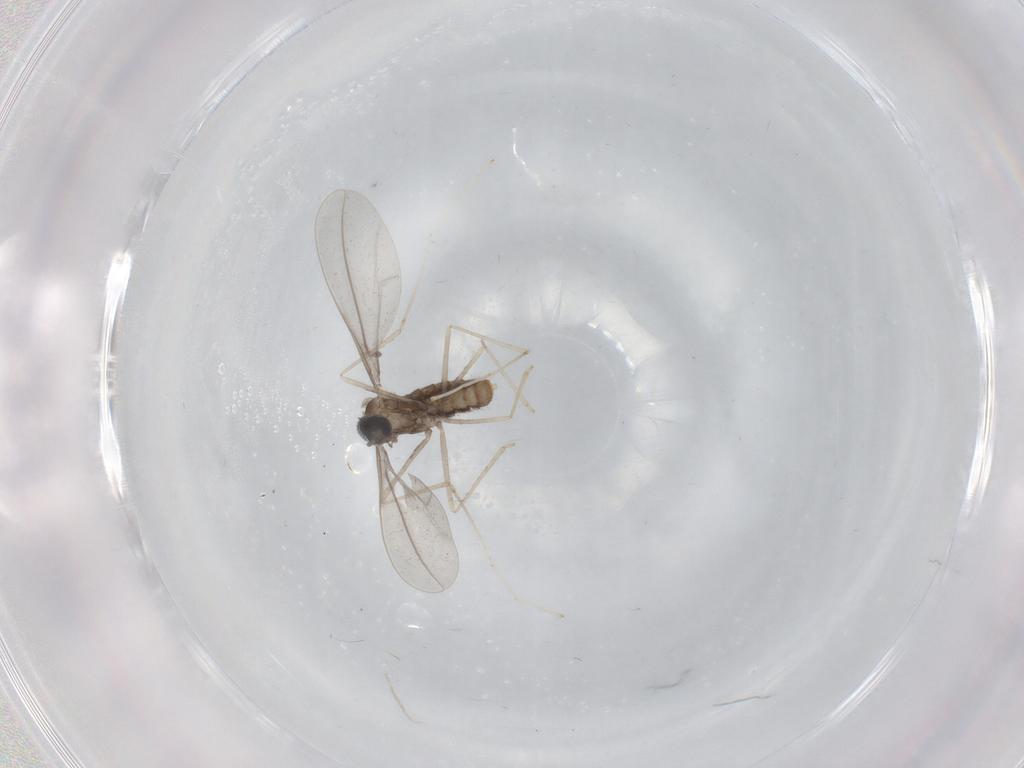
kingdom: Animalia
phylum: Arthropoda
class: Insecta
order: Diptera
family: Cecidomyiidae
